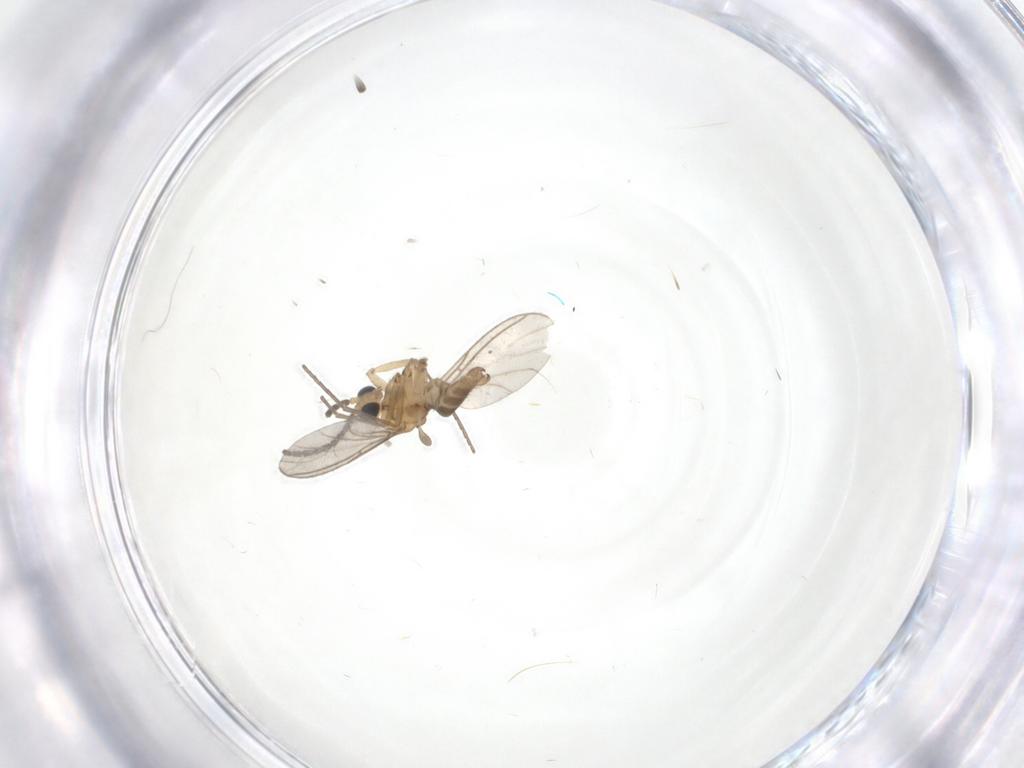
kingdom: Animalia
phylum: Arthropoda
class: Insecta
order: Diptera
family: Sciaridae
